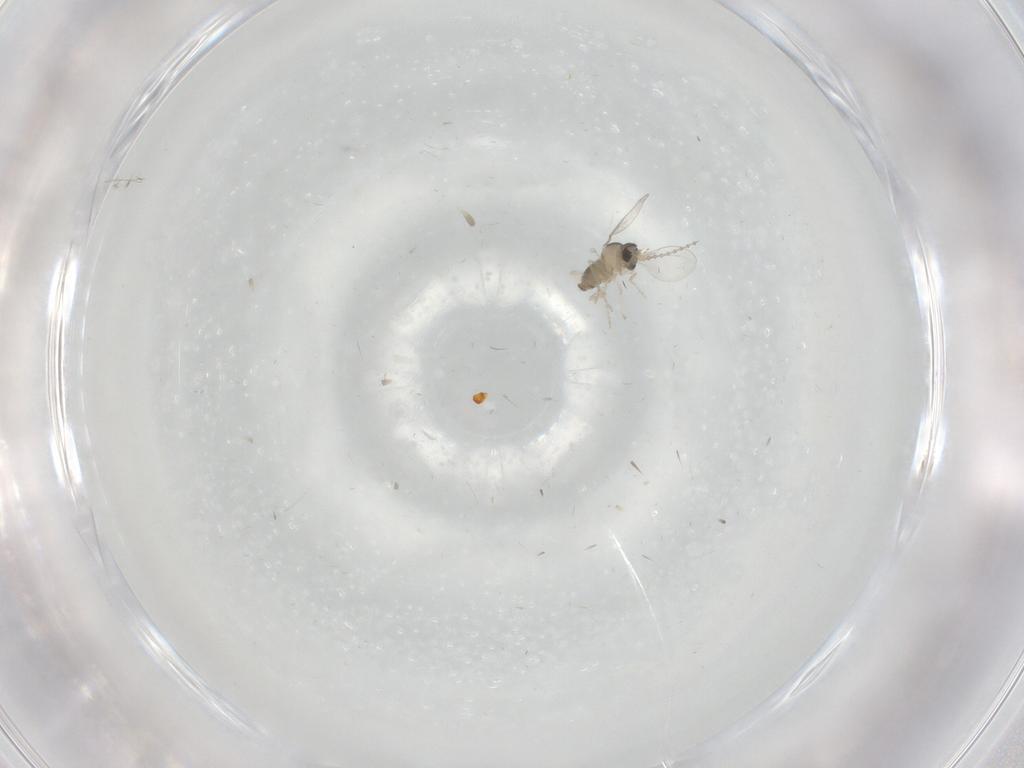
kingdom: Animalia
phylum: Arthropoda
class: Insecta
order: Diptera
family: Cecidomyiidae
